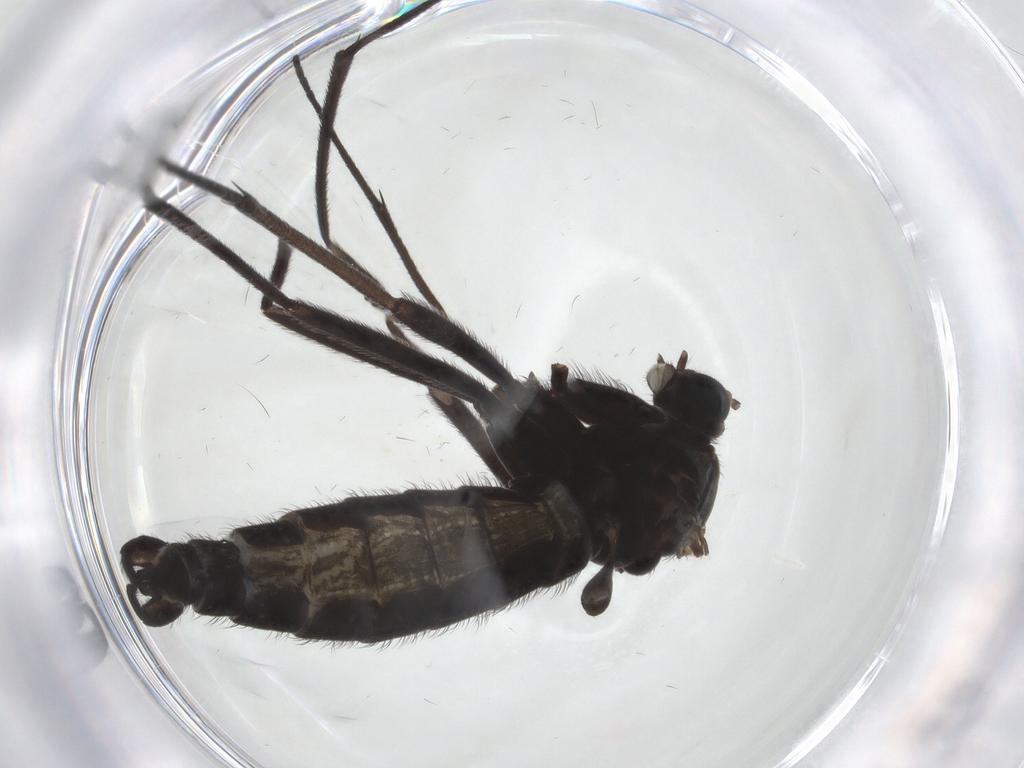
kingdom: Animalia
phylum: Arthropoda
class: Insecta
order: Diptera
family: Sciaridae
